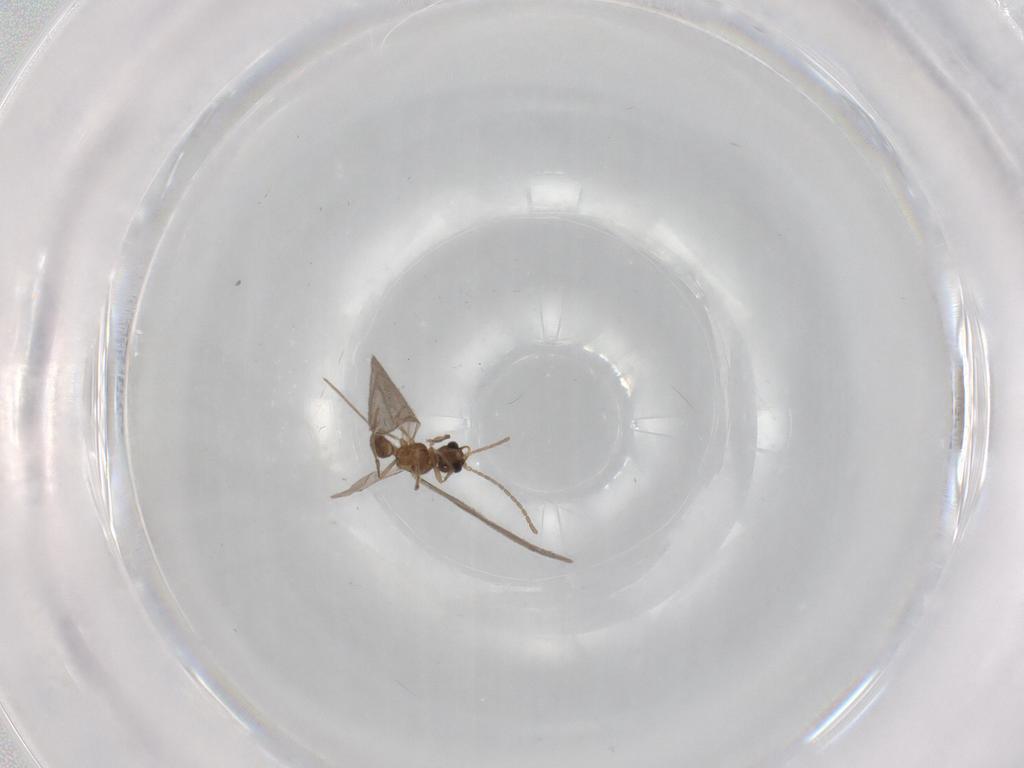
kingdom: Animalia
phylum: Arthropoda
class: Insecta
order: Hymenoptera
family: Formicidae
